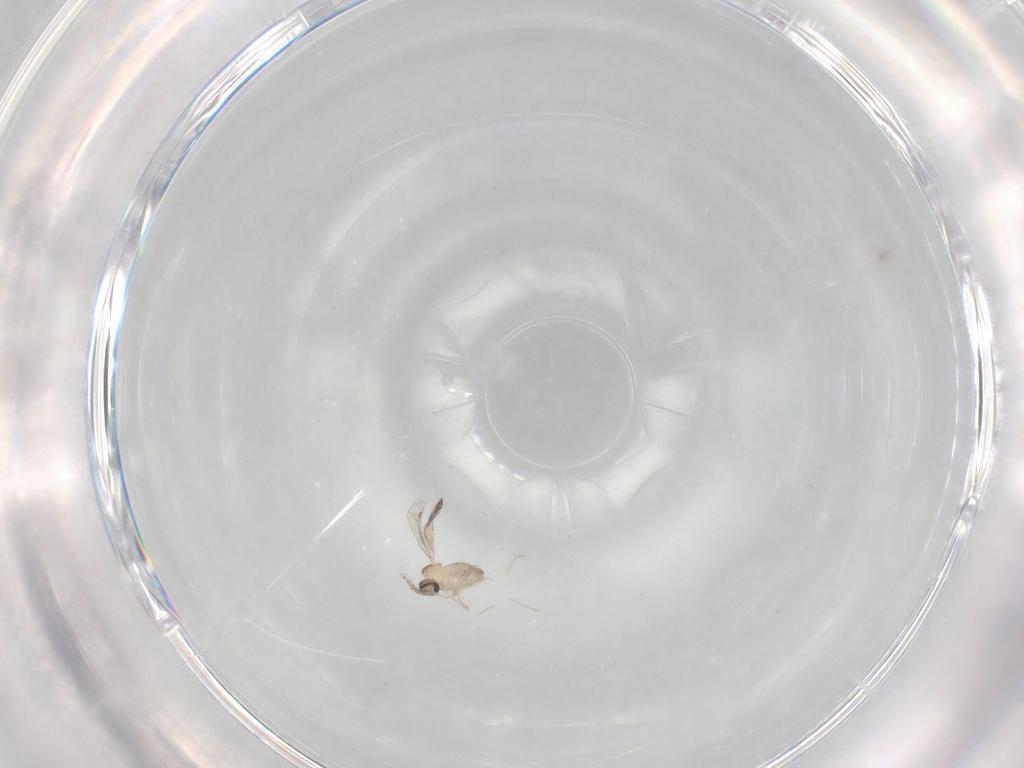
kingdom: Animalia
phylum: Arthropoda
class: Insecta
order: Diptera
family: Cecidomyiidae
